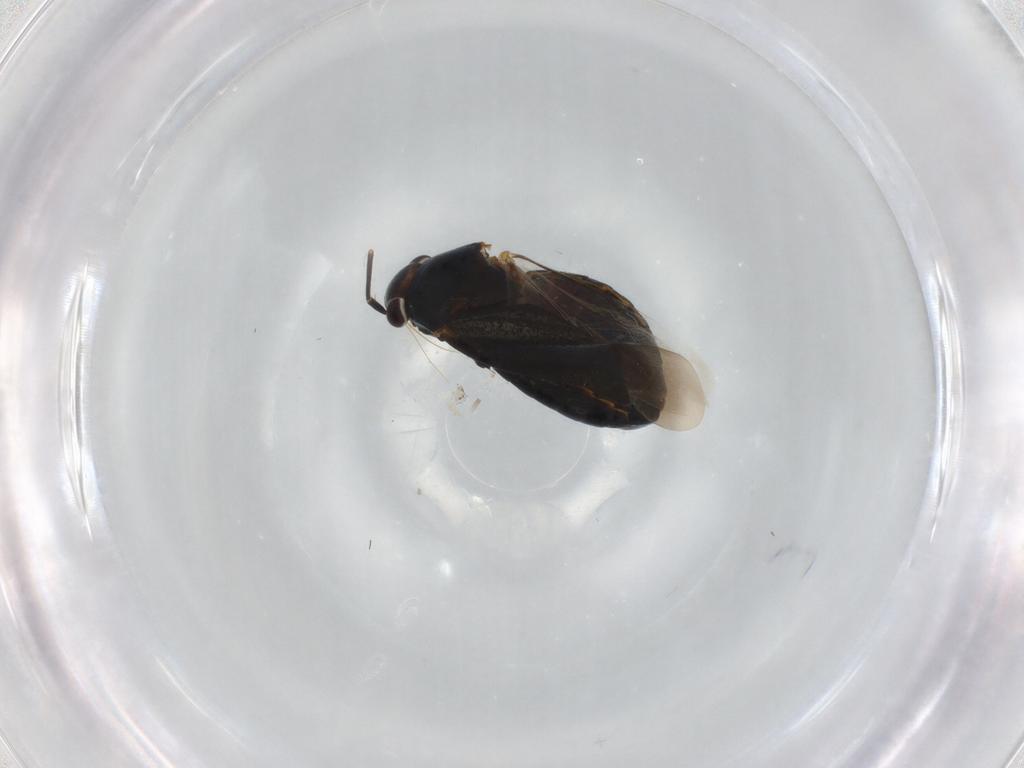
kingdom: Animalia
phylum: Arthropoda
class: Insecta
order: Hemiptera
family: Aphididae
